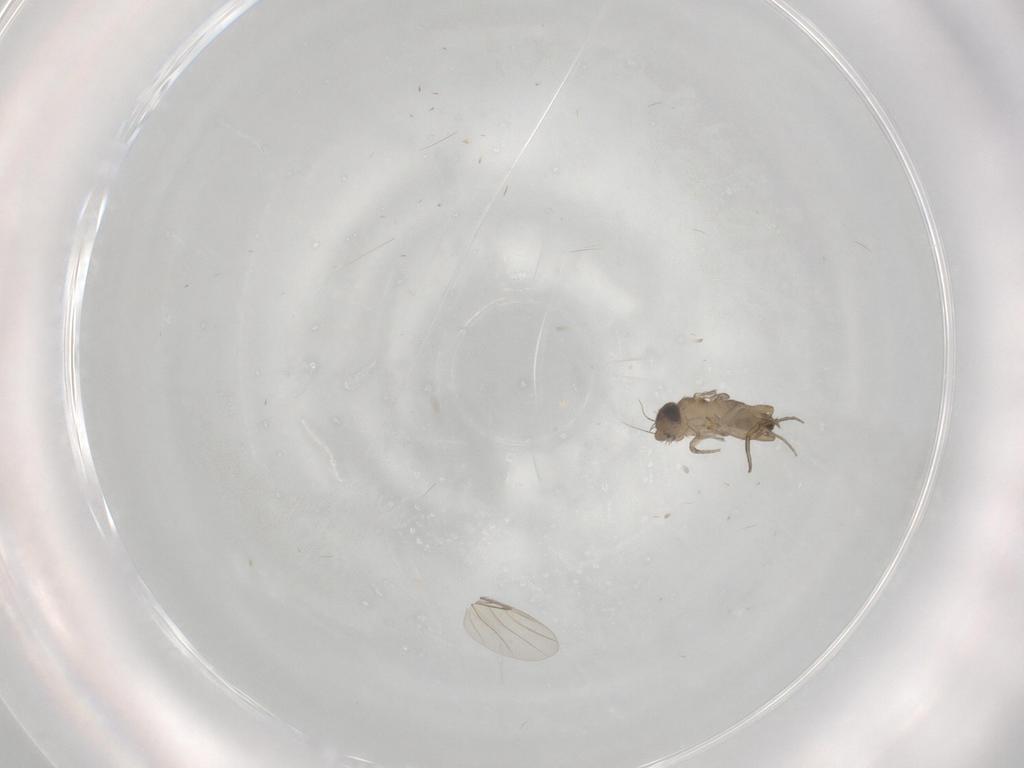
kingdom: Animalia
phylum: Arthropoda
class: Insecta
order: Diptera
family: Phoridae
